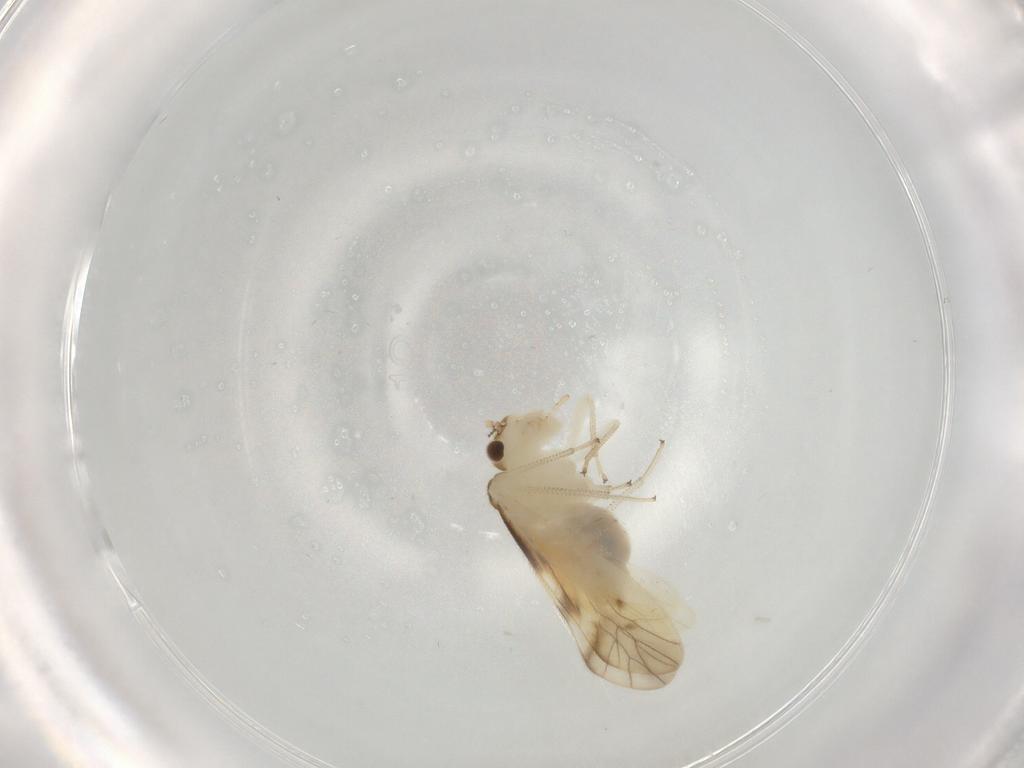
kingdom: Animalia
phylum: Arthropoda
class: Insecta
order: Psocodea
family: Caeciliusidae
